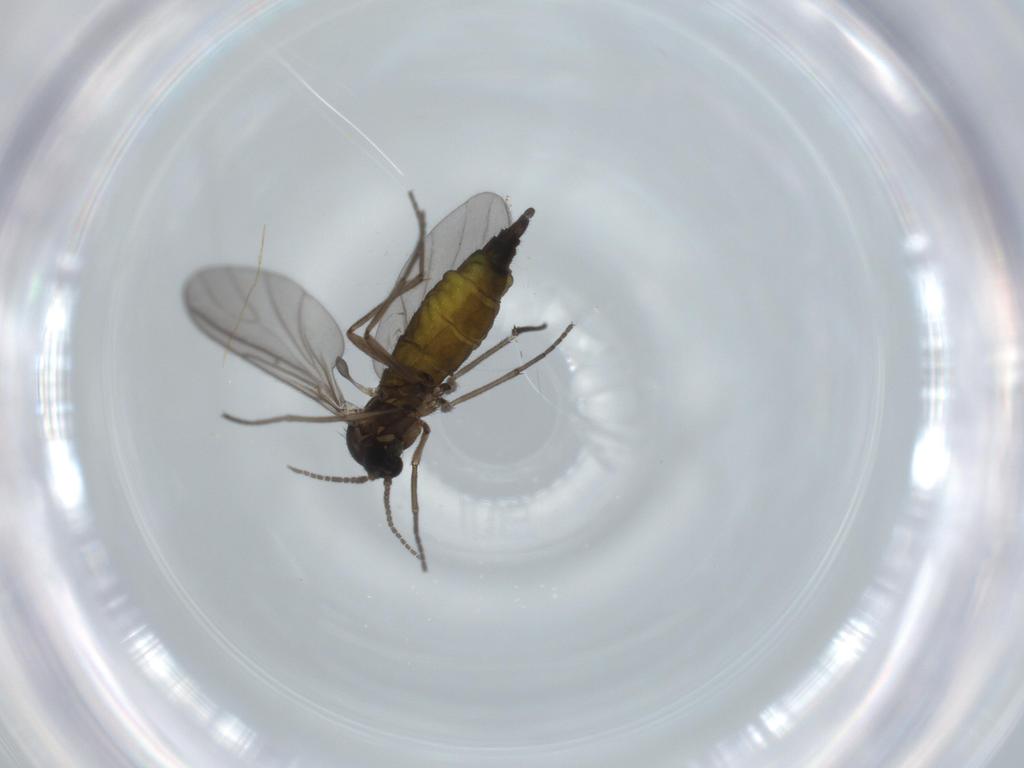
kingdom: Animalia
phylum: Arthropoda
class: Insecta
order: Diptera
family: Sciaridae
